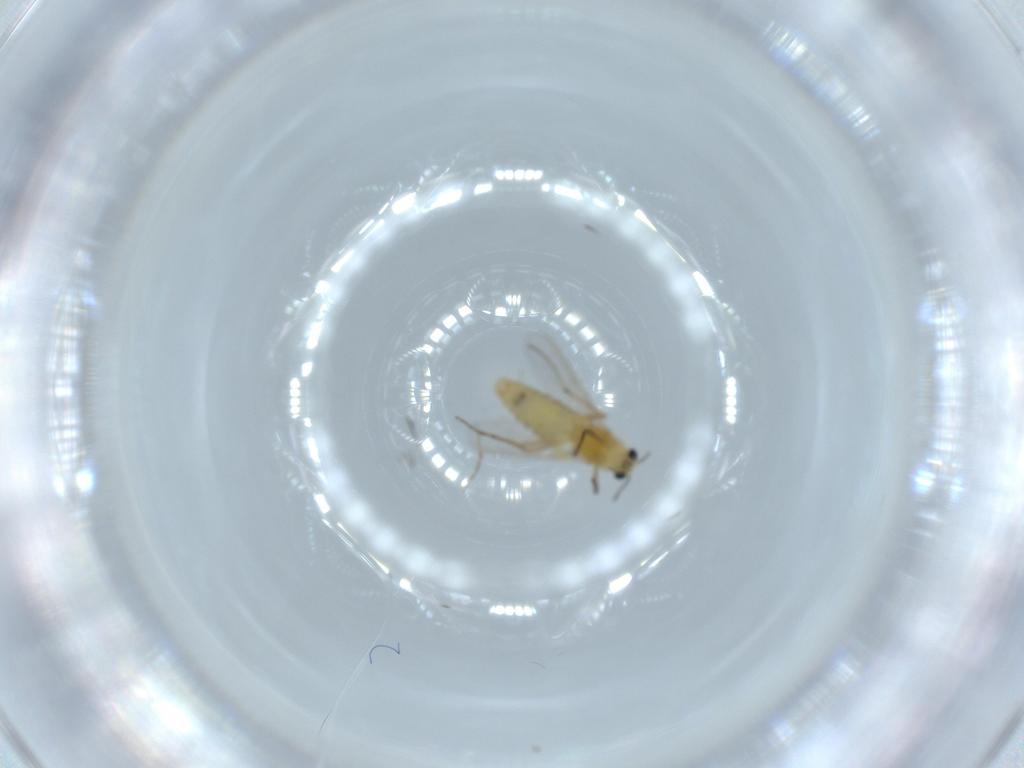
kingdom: Animalia
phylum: Arthropoda
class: Insecta
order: Diptera
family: Chironomidae
